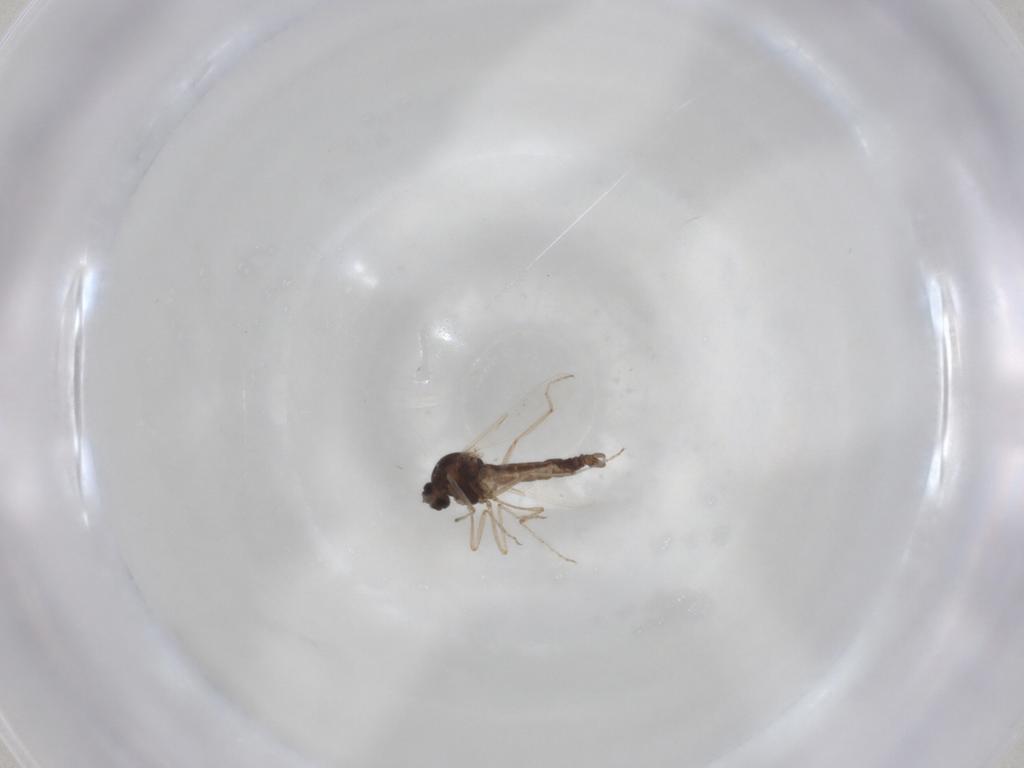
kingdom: Animalia
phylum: Arthropoda
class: Insecta
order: Diptera
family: Ceratopogonidae
